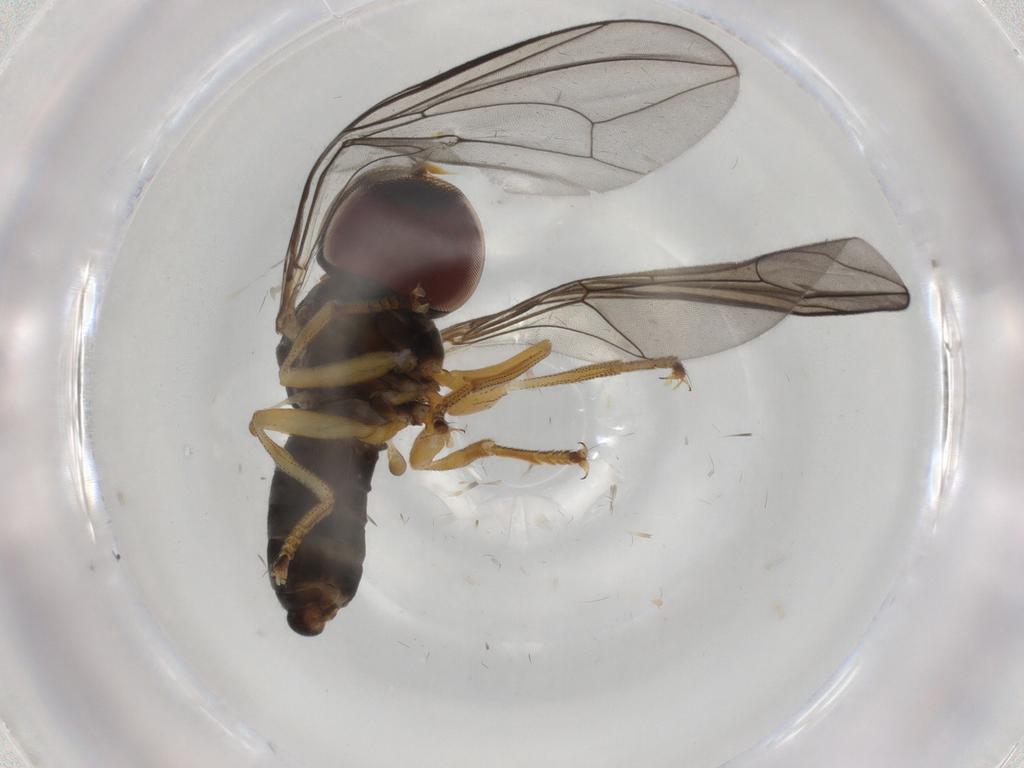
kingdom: Animalia
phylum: Arthropoda
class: Insecta
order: Diptera
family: Pipunculidae
